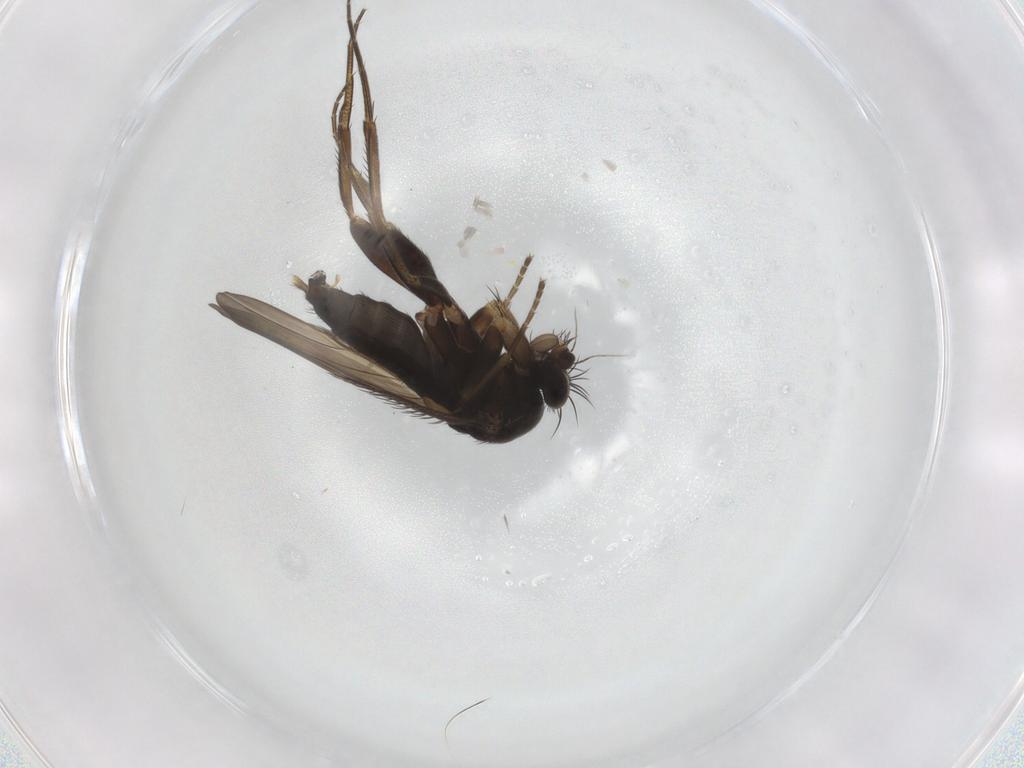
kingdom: Animalia
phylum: Arthropoda
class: Insecta
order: Diptera
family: Phoridae
